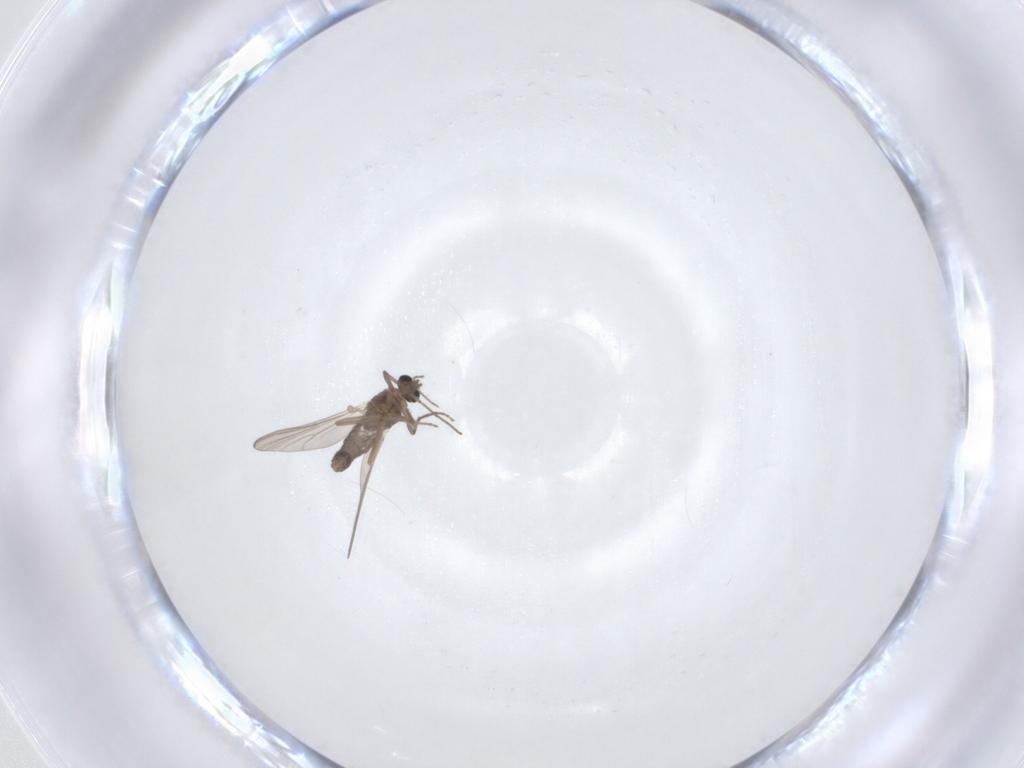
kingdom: Animalia
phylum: Arthropoda
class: Insecta
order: Diptera
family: Chironomidae
